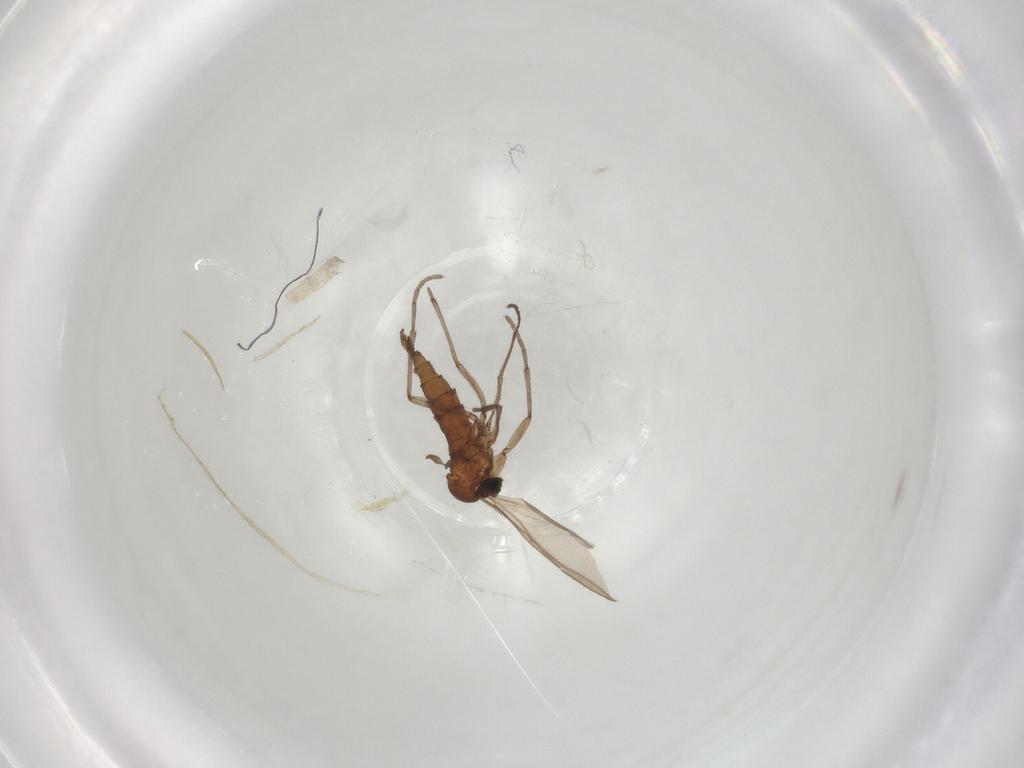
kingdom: Animalia
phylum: Arthropoda
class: Insecta
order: Diptera
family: Sciaridae
